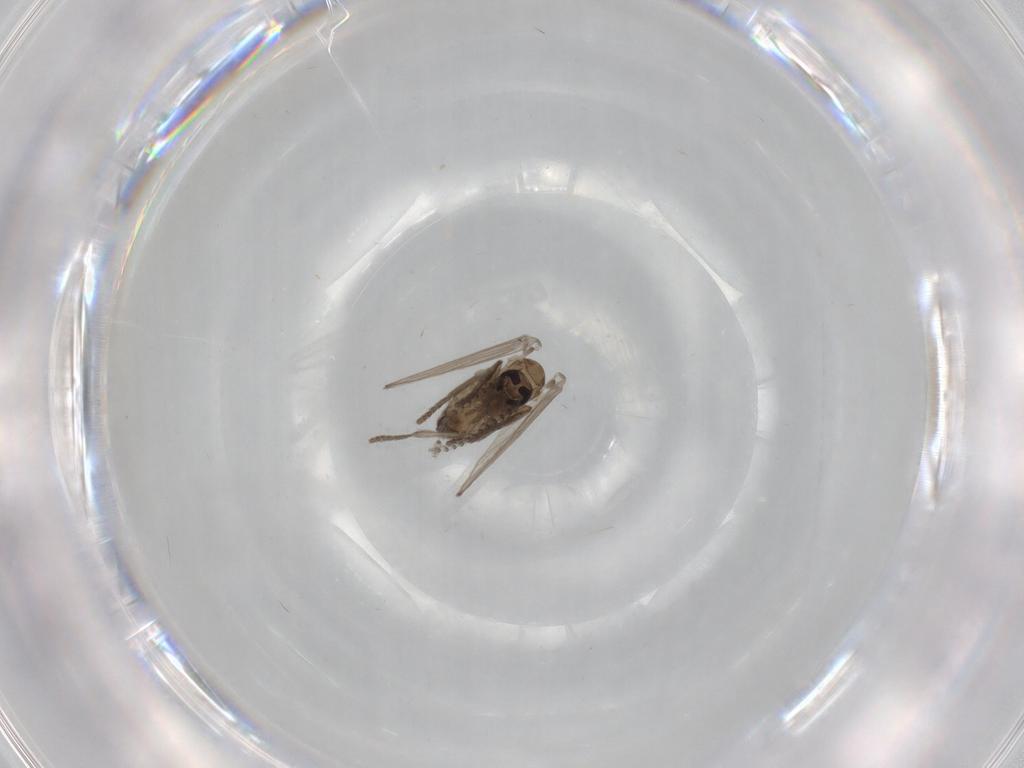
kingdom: Animalia
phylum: Arthropoda
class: Insecta
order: Diptera
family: Psychodidae
